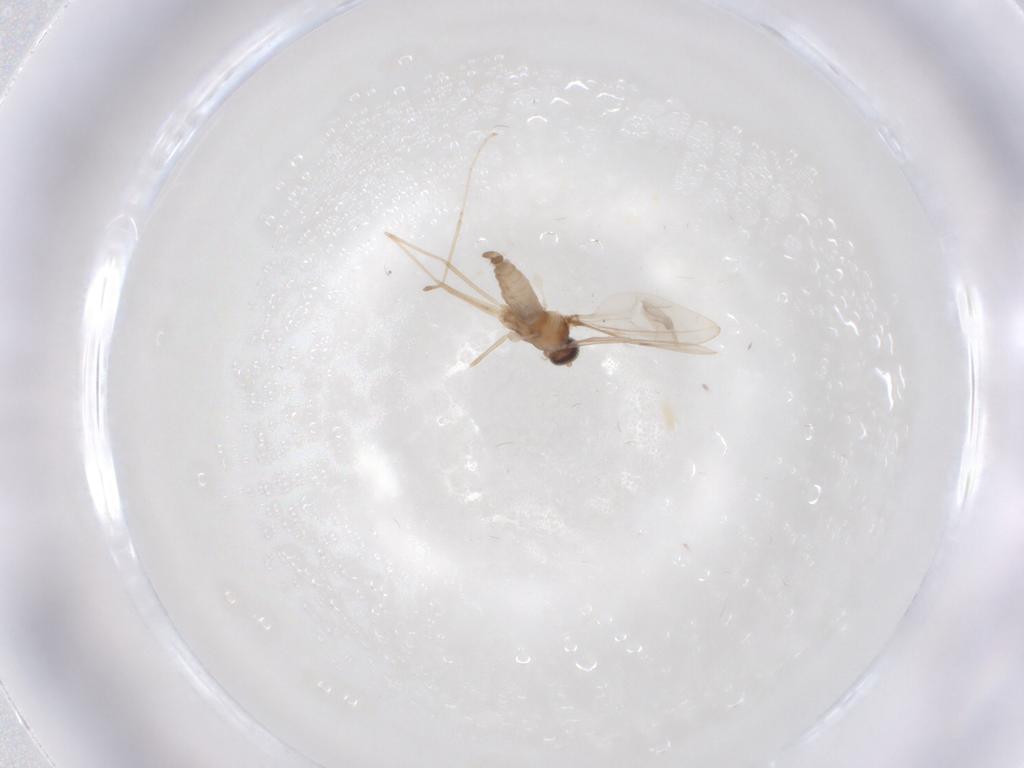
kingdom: Animalia
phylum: Arthropoda
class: Insecta
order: Diptera
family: Cecidomyiidae
